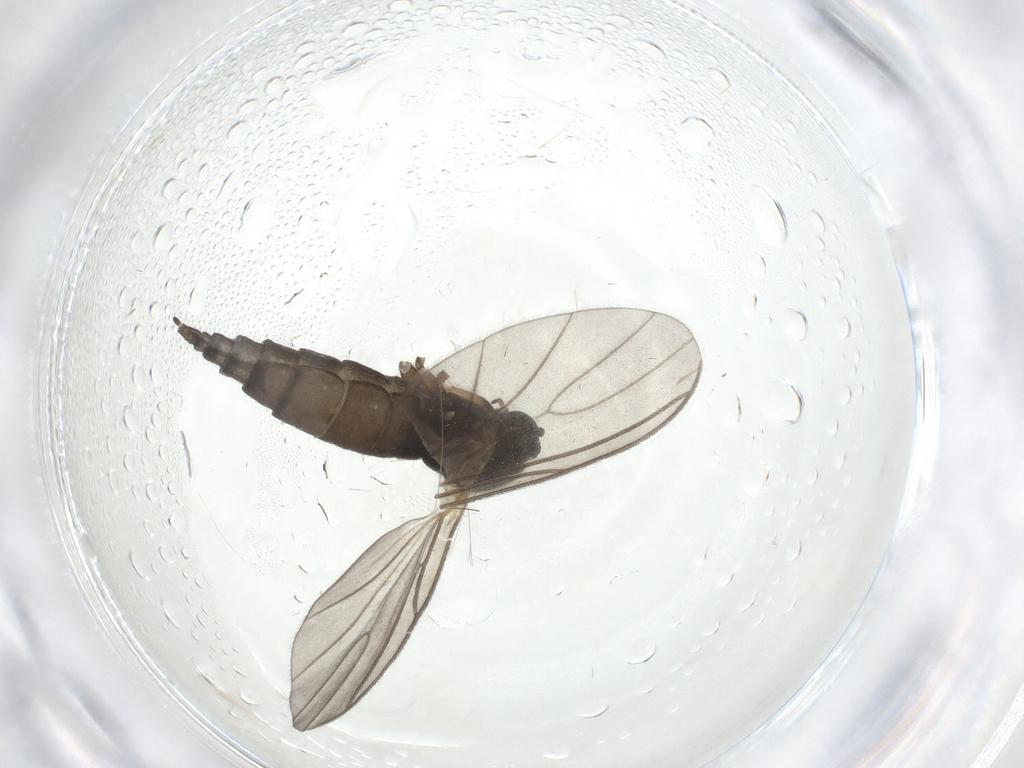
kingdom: Animalia
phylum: Arthropoda
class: Insecta
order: Diptera
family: Sciaridae
